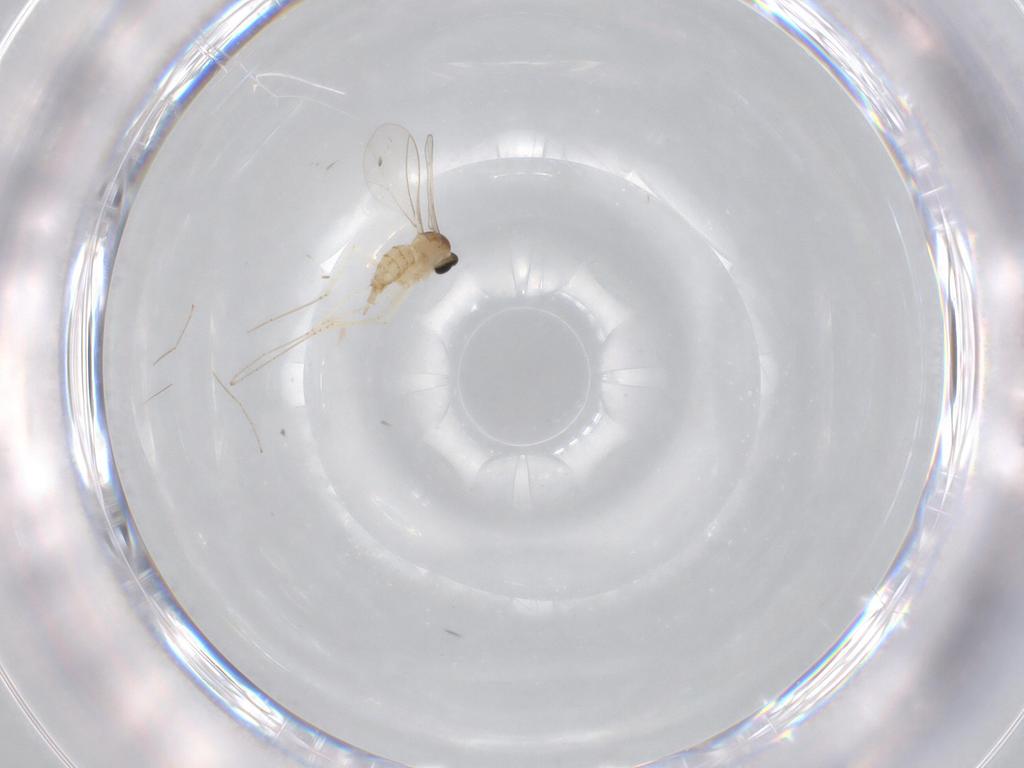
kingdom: Animalia
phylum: Arthropoda
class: Insecta
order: Diptera
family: Cecidomyiidae
